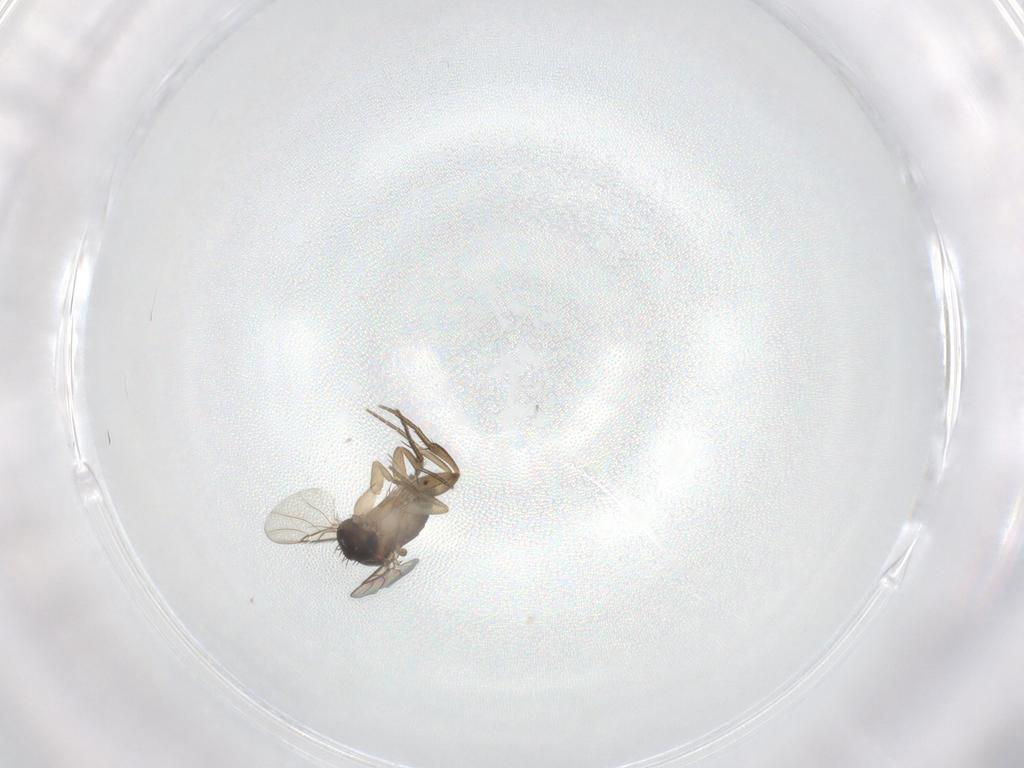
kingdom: Animalia
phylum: Arthropoda
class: Insecta
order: Diptera
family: Phoridae
